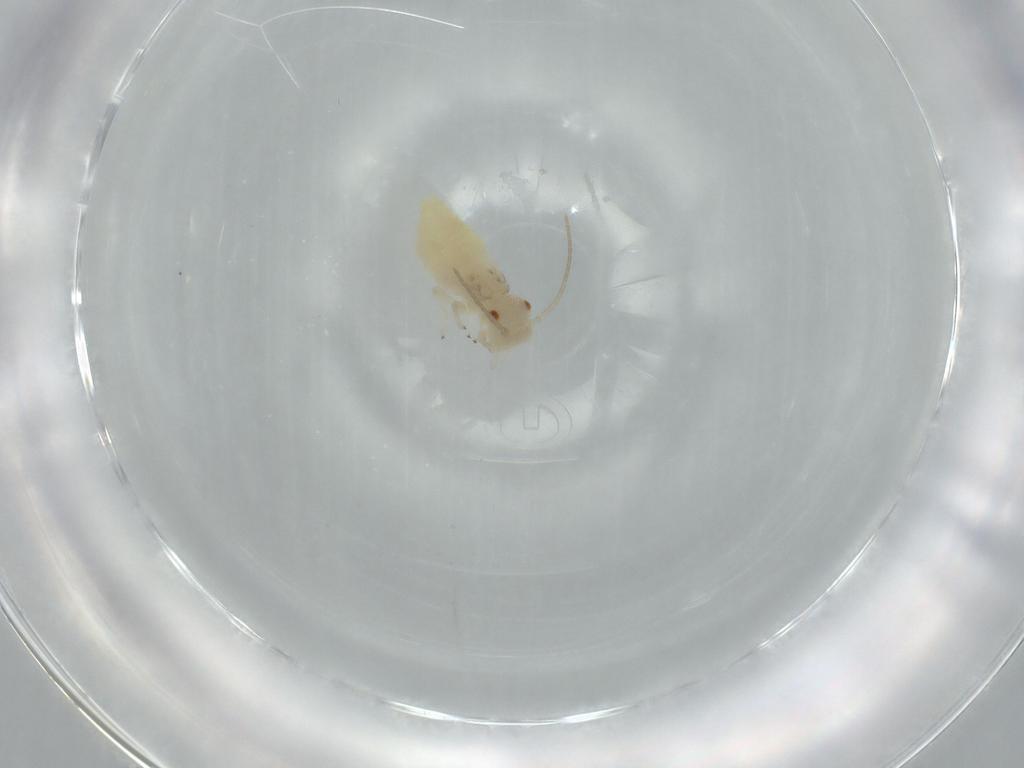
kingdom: Animalia
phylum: Arthropoda
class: Insecta
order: Psocodea
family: Caeciliusidae
